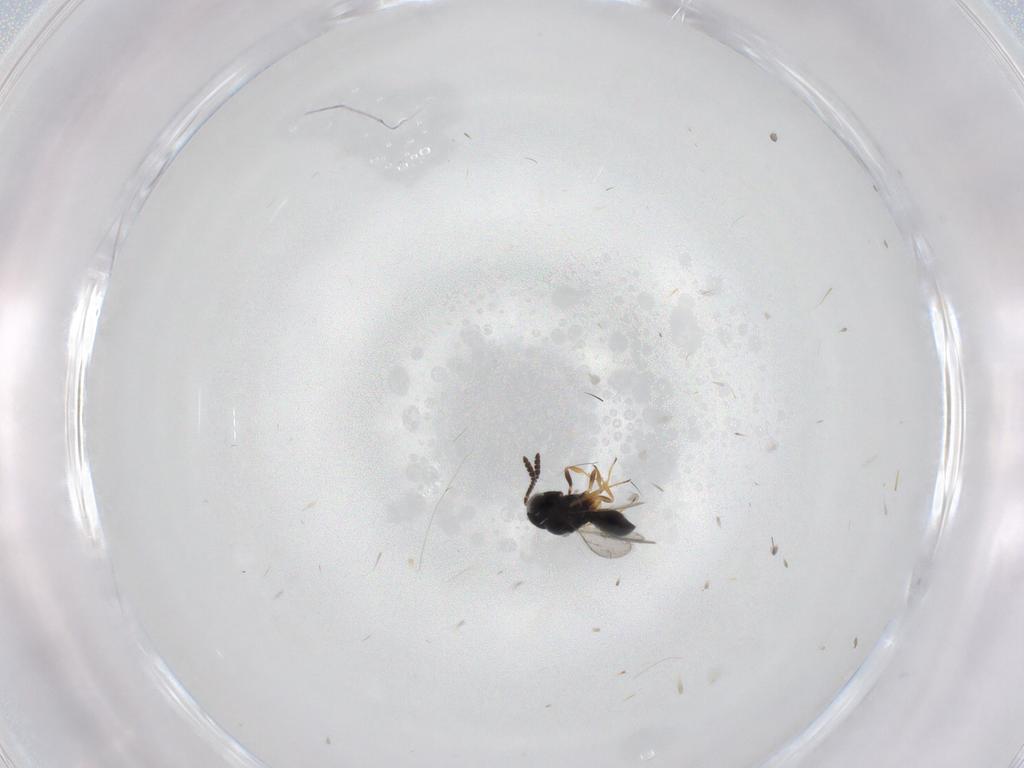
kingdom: Animalia
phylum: Arthropoda
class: Insecta
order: Hymenoptera
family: Scelionidae
